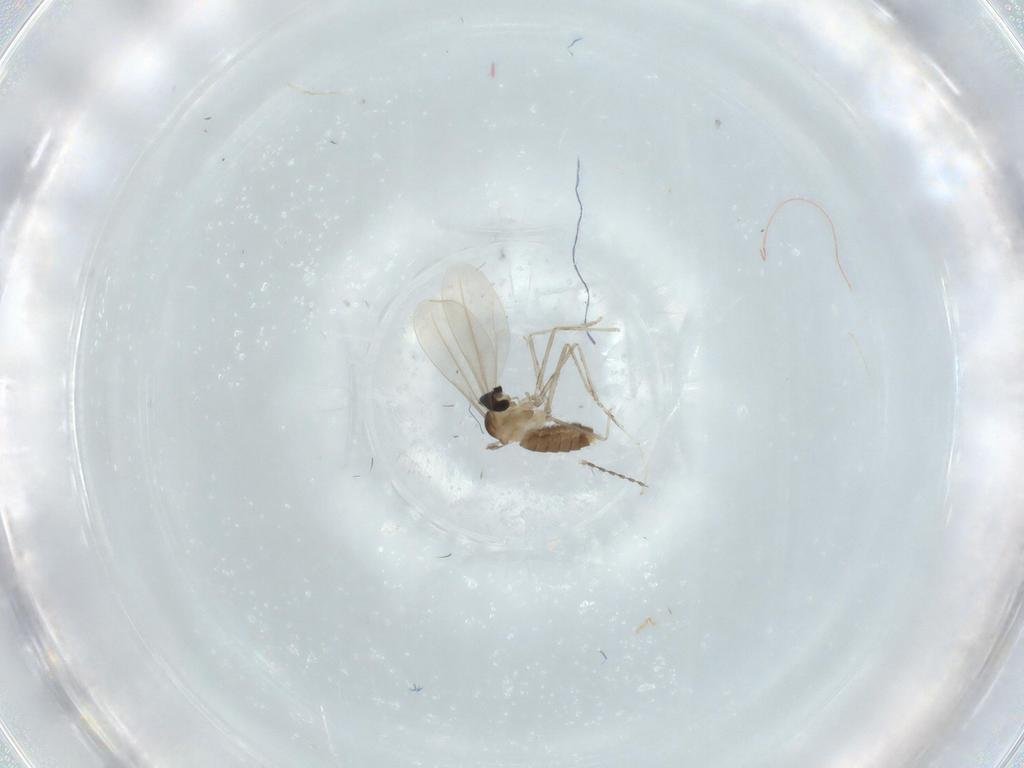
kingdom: Animalia
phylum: Arthropoda
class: Insecta
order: Diptera
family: Cecidomyiidae
